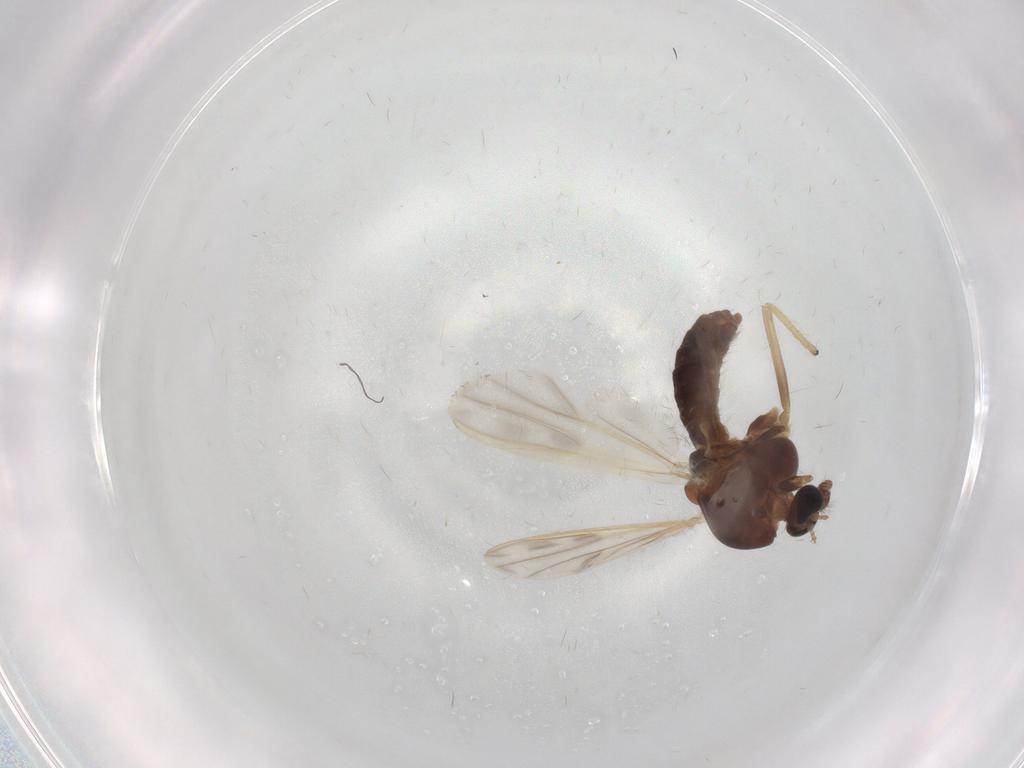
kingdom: Animalia
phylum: Arthropoda
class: Insecta
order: Diptera
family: Chironomidae
